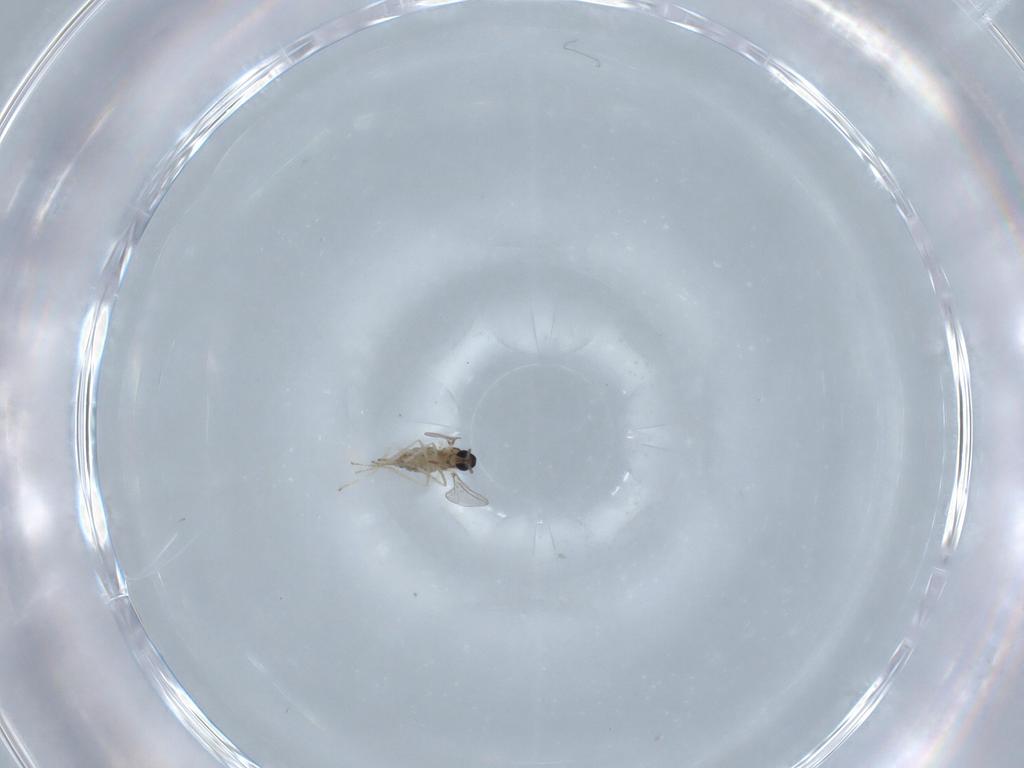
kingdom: Animalia
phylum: Arthropoda
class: Insecta
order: Diptera
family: Cecidomyiidae
